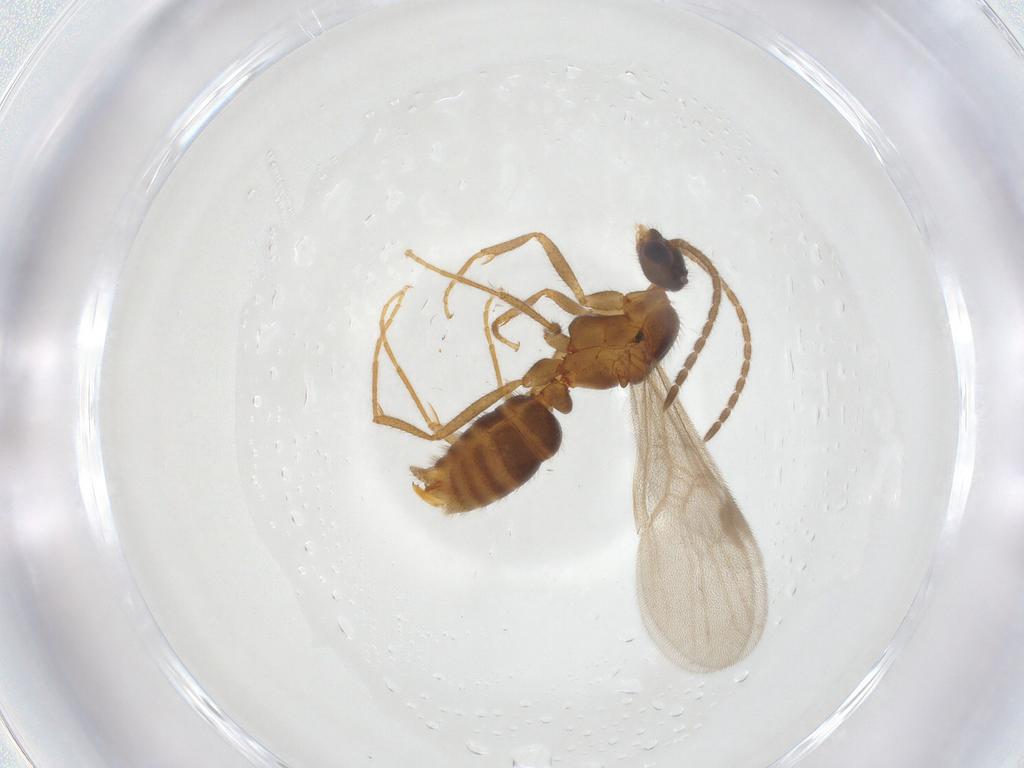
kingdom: Animalia
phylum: Arthropoda
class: Insecta
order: Hymenoptera
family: Formicidae
